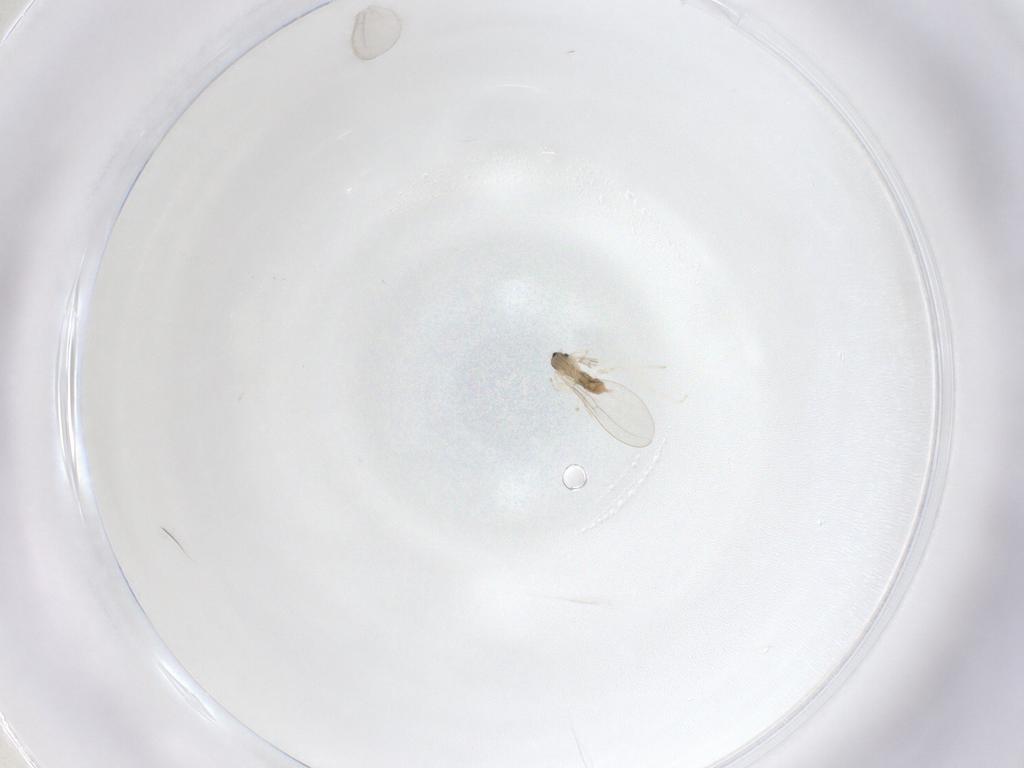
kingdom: Animalia
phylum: Arthropoda
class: Insecta
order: Diptera
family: Cecidomyiidae
